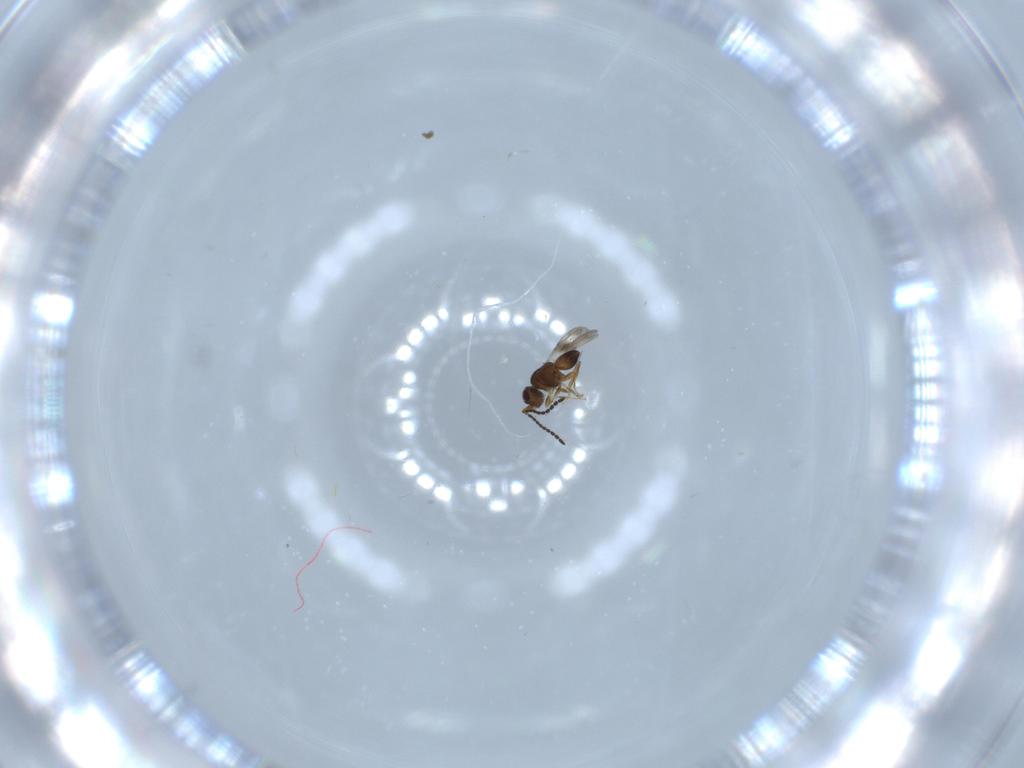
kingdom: Animalia
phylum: Arthropoda
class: Insecta
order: Hymenoptera
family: Ceraphronidae
